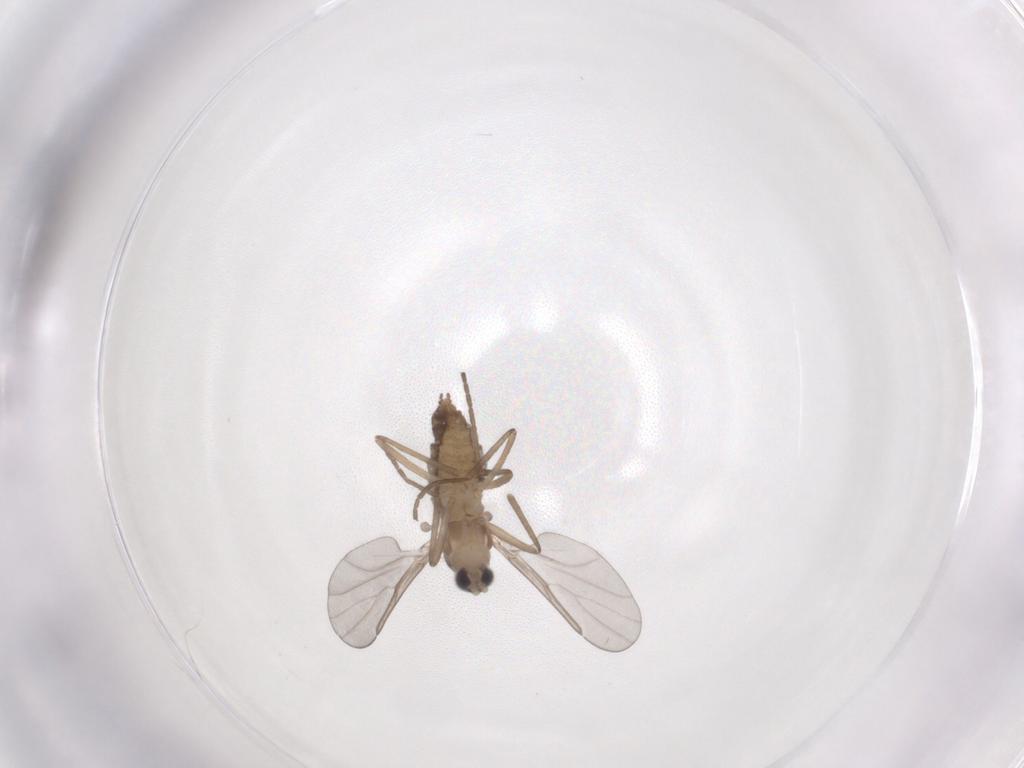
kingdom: Animalia
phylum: Arthropoda
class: Insecta
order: Diptera
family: Cecidomyiidae
